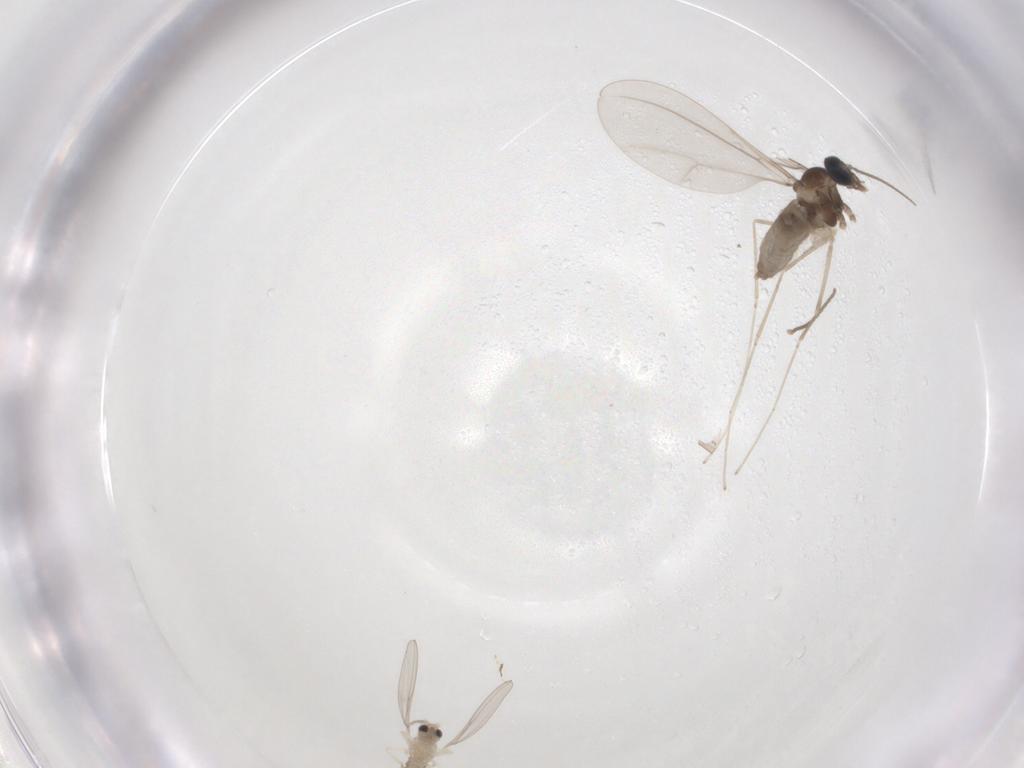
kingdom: Animalia
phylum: Arthropoda
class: Insecta
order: Diptera
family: Cecidomyiidae
